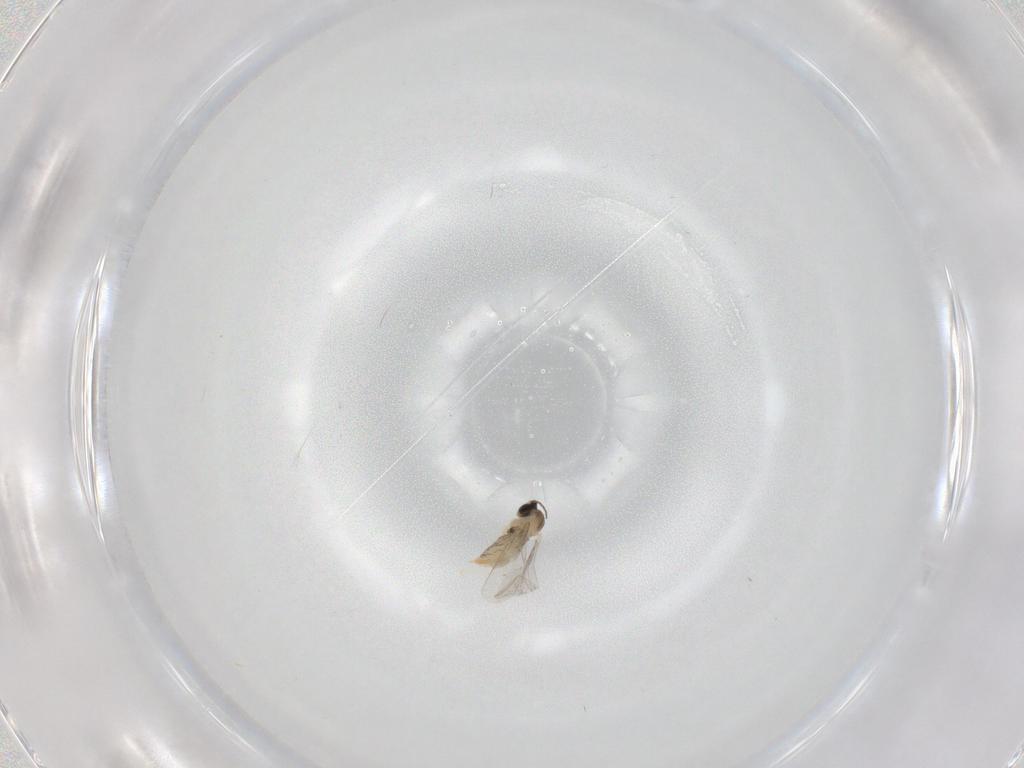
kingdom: Animalia
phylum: Arthropoda
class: Insecta
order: Diptera
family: Cecidomyiidae
